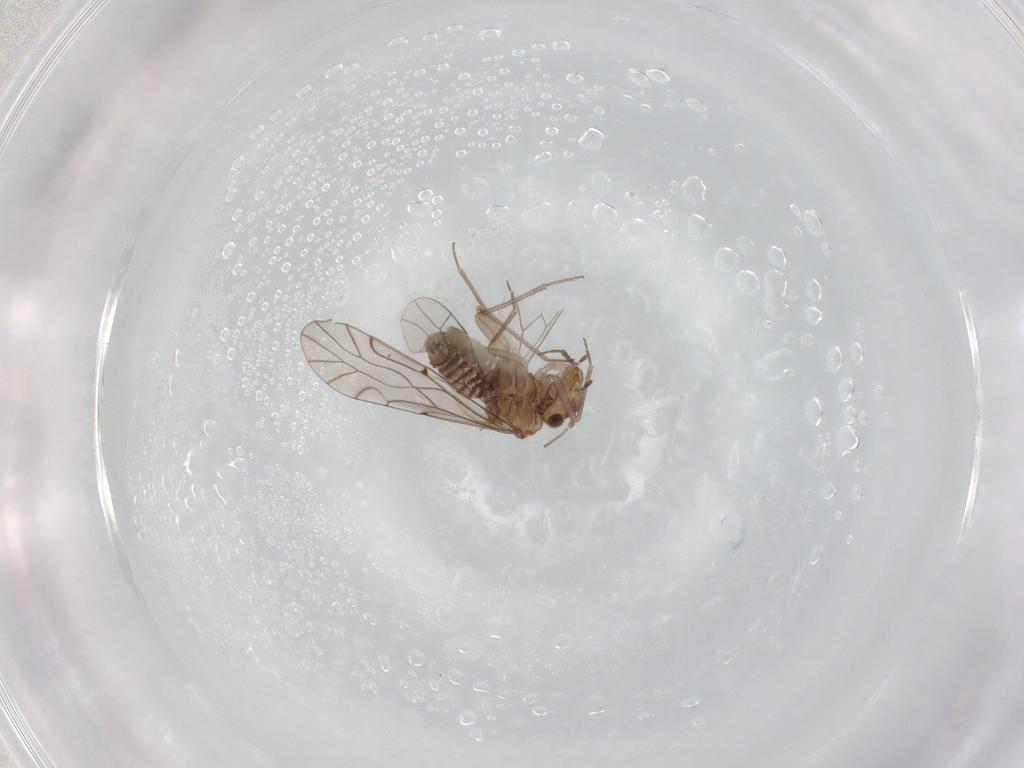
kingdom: Animalia
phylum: Arthropoda
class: Insecta
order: Psocodea
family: Lachesillidae
